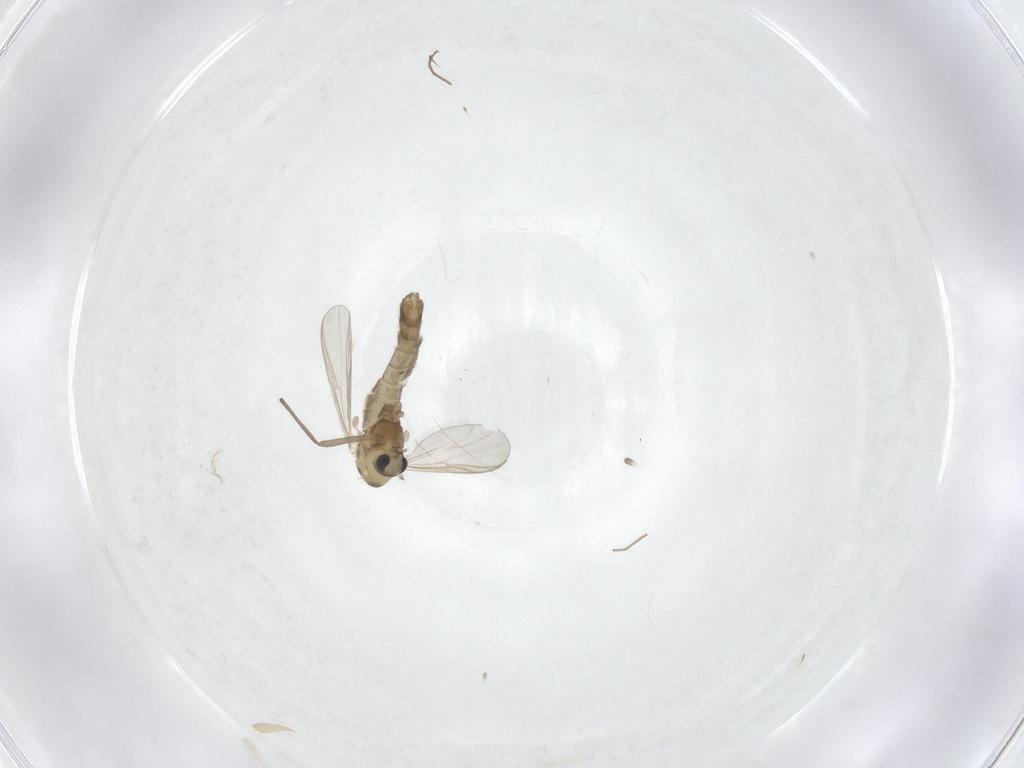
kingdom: Animalia
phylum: Arthropoda
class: Insecta
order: Diptera
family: Chironomidae
